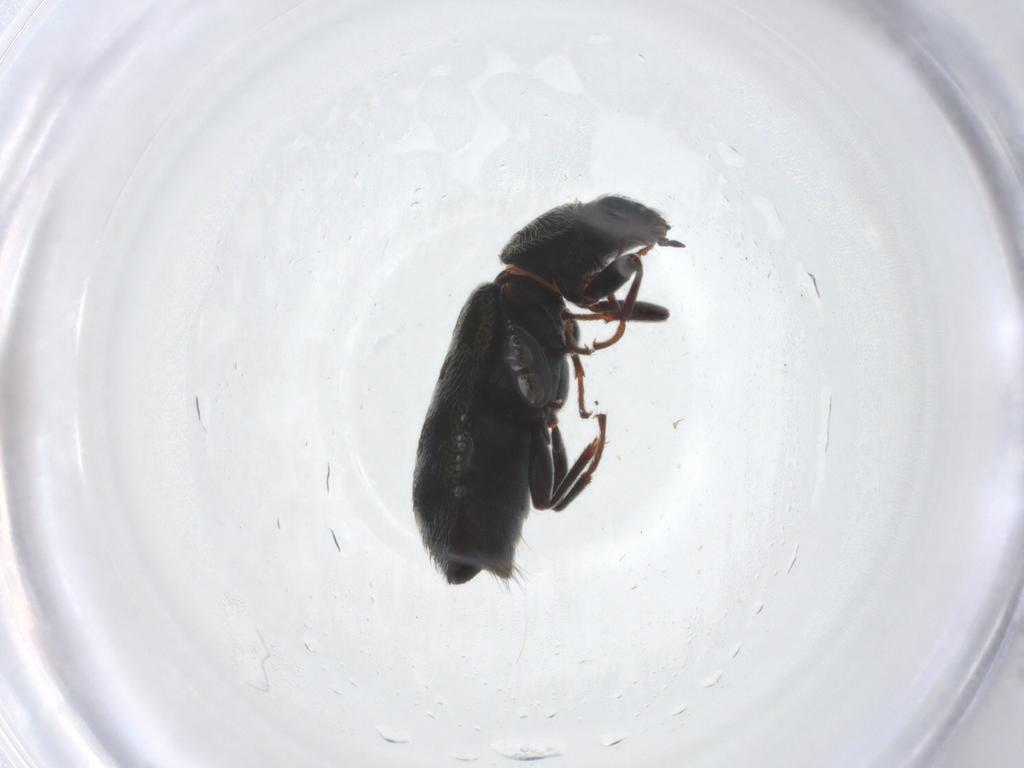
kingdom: Animalia
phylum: Arthropoda
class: Insecta
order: Coleoptera
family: Melyridae
